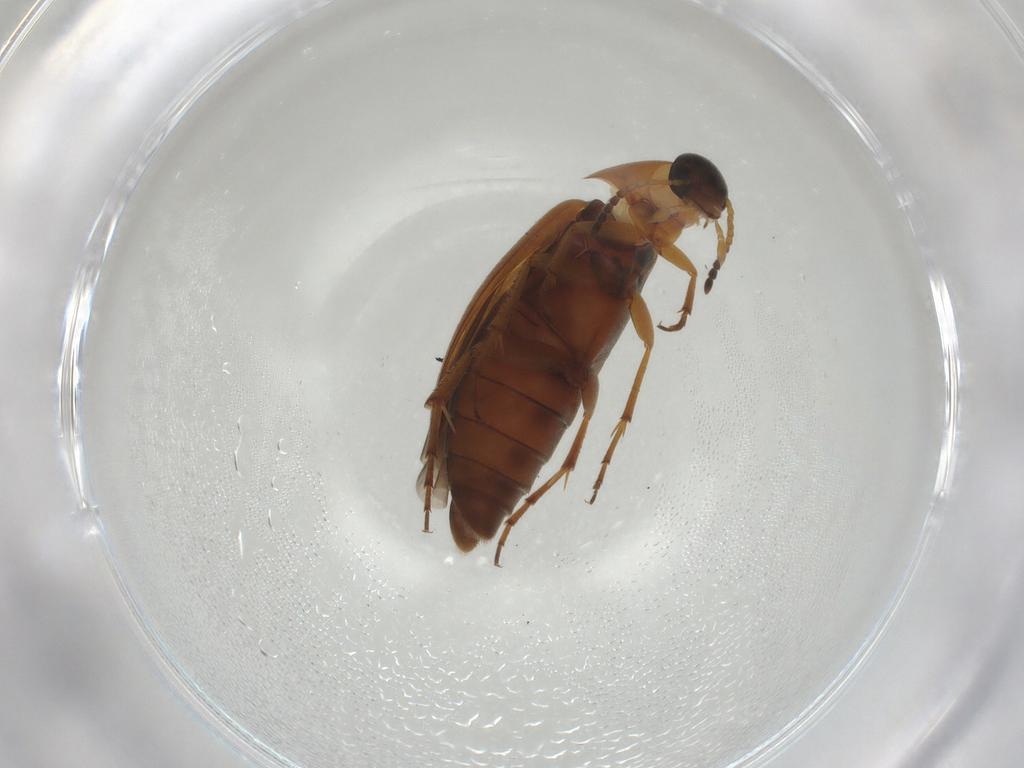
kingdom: Animalia
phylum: Arthropoda
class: Insecta
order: Coleoptera
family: Scraptiidae
